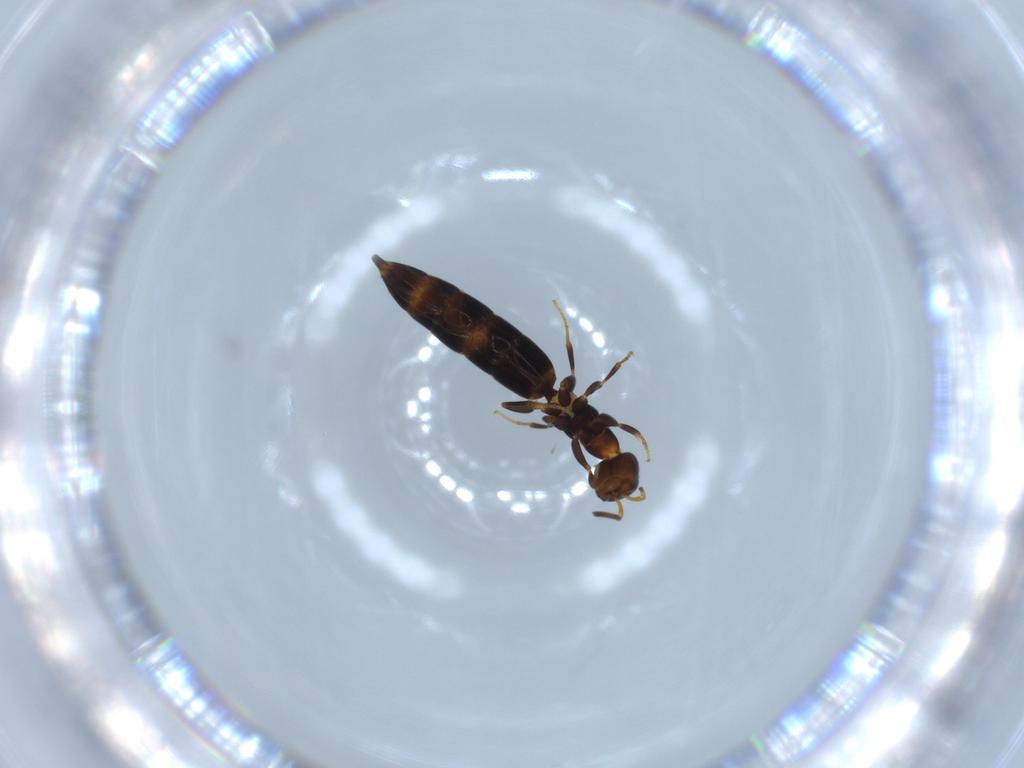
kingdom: Animalia
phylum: Arthropoda
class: Insecta
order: Hymenoptera
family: Bethylidae
